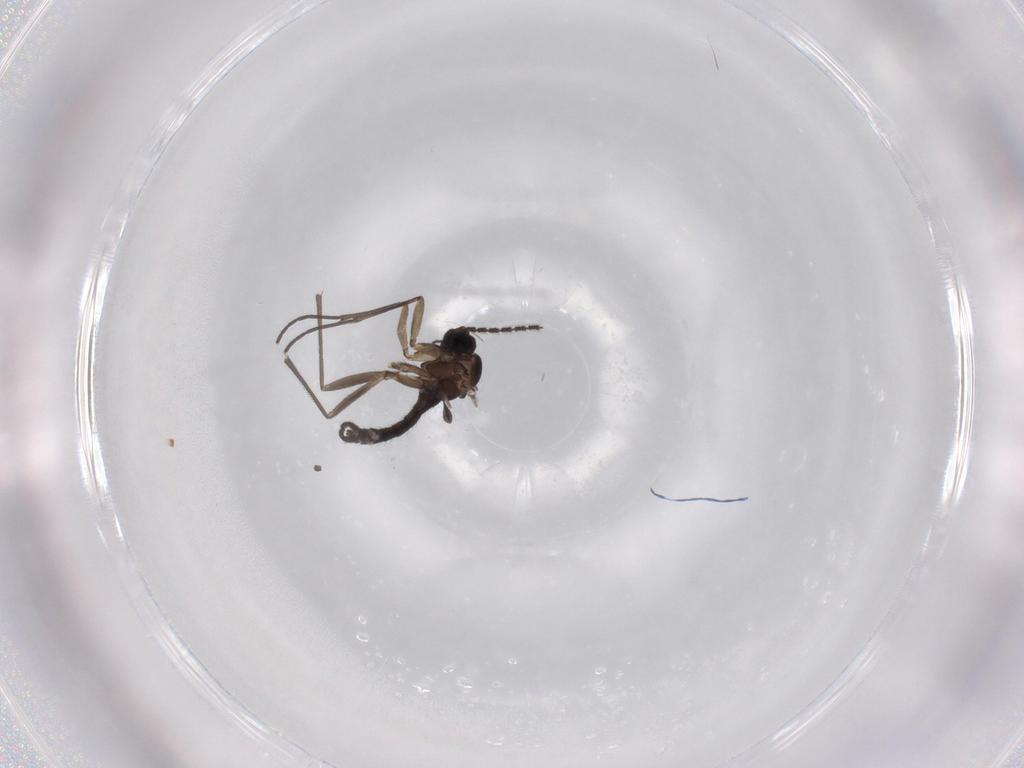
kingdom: Animalia
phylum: Arthropoda
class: Insecta
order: Diptera
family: Sciaridae
